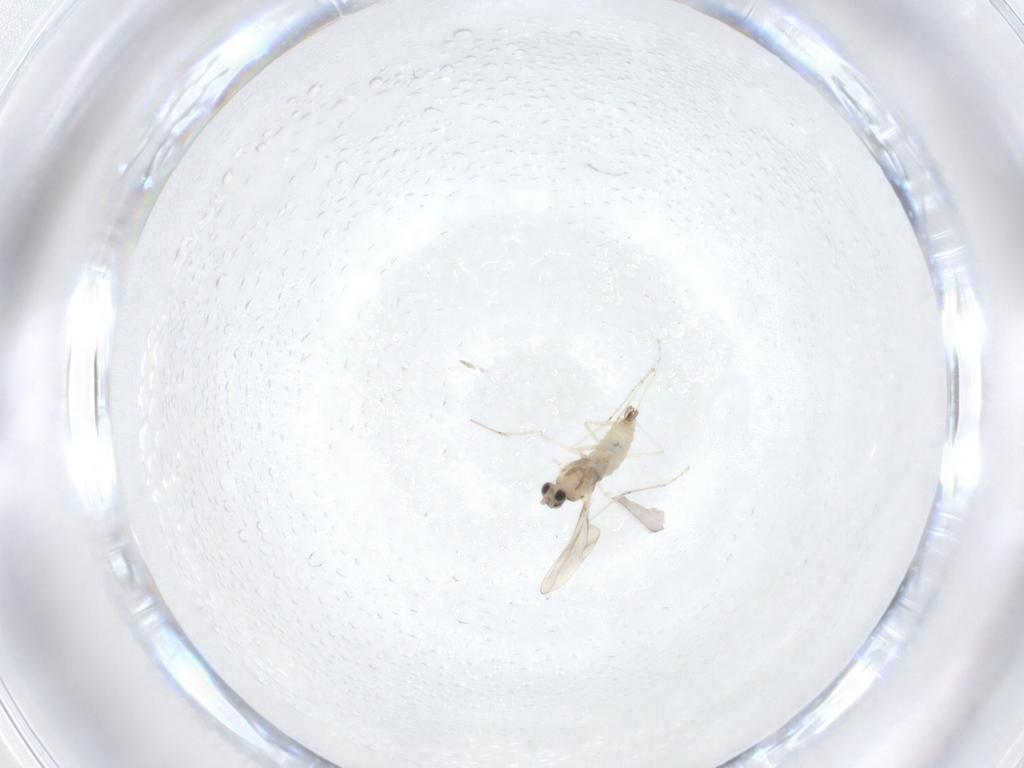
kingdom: Animalia
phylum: Arthropoda
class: Insecta
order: Diptera
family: Cecidomyiidae
